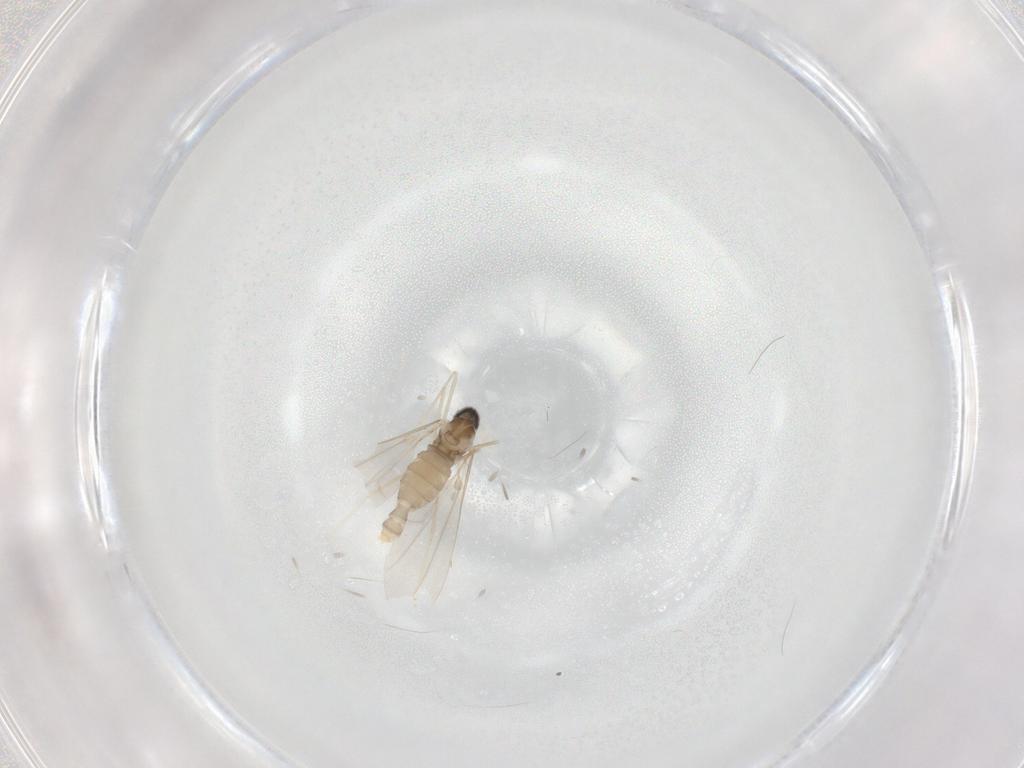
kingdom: Animalia
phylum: Arthropoda
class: Insecta
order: Diptera
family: Cecidomyiidae
